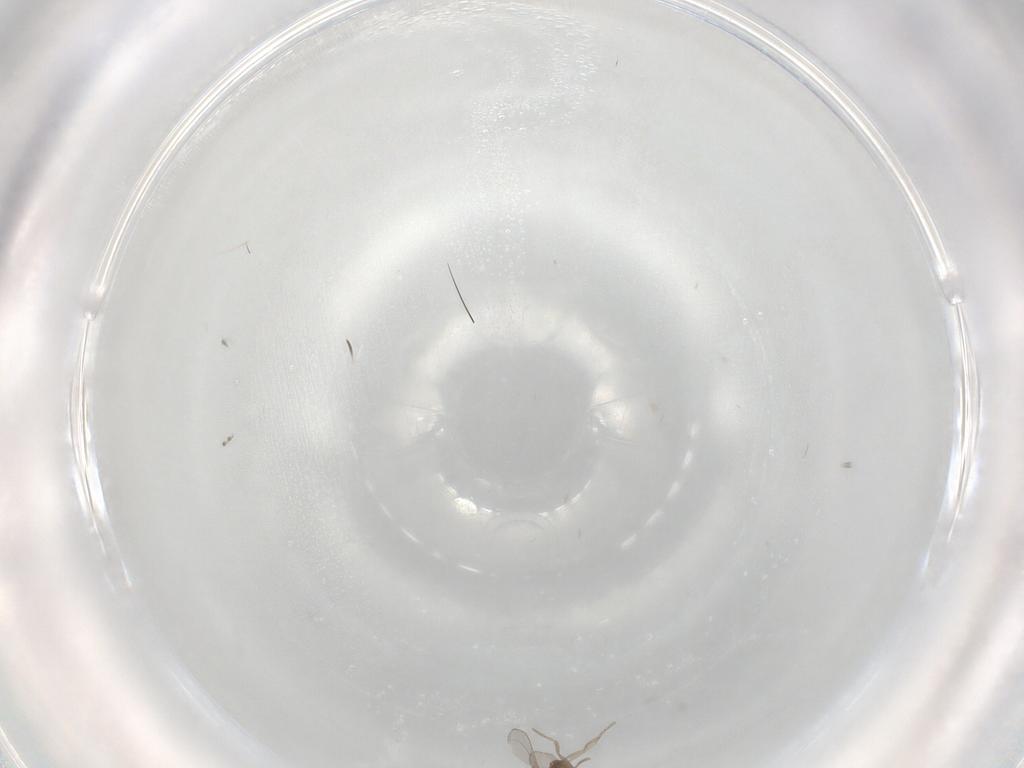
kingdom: Animalia
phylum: Arthropoda
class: Insecta
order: Diptera
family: Cecidomyiidae
